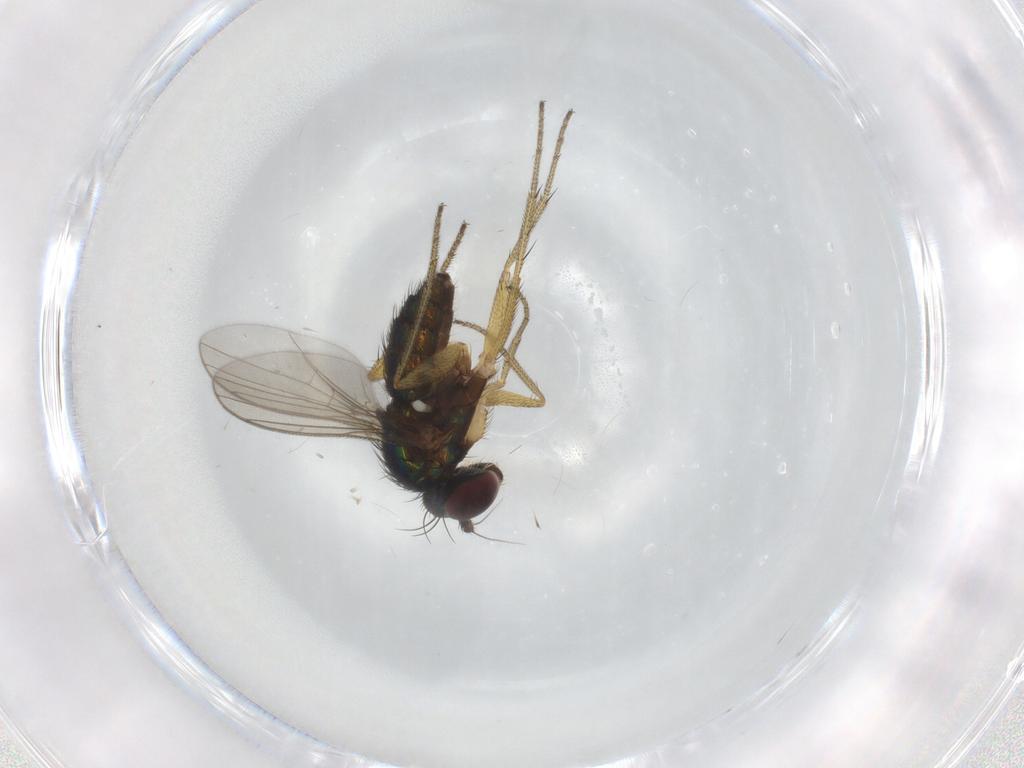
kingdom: Animalia
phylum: Arthropoda
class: Insecta
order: Diptera
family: Chironomidae
